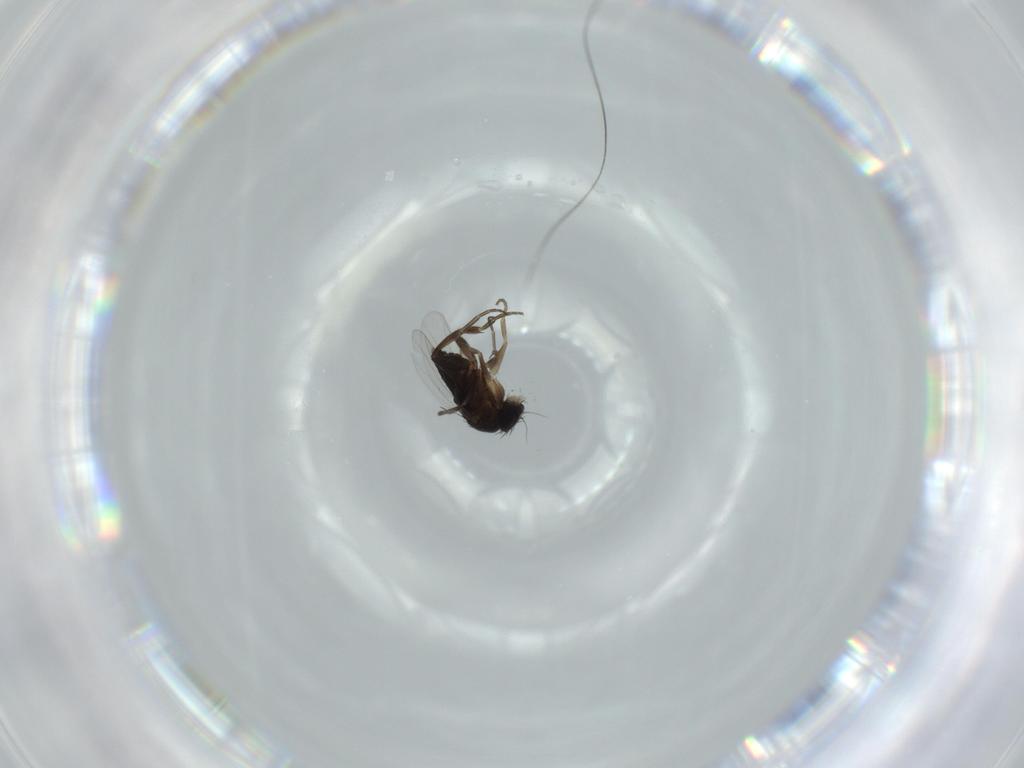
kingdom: Animalia
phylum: Arthropoda
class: Insecta
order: Diptera
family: Phoridae
